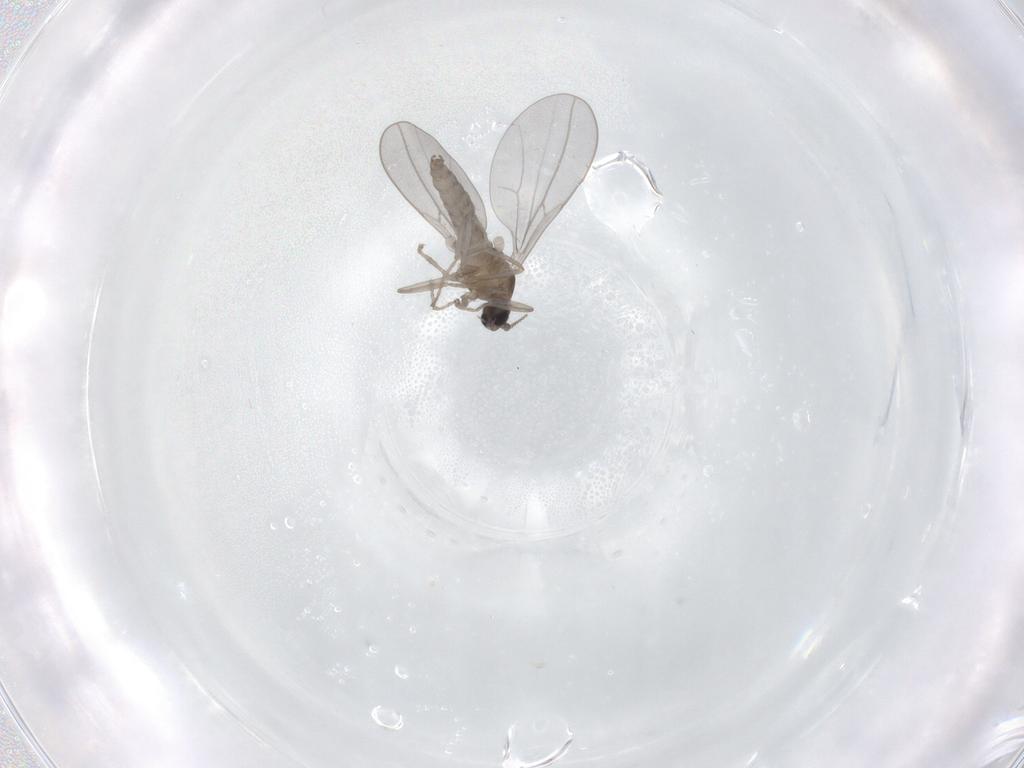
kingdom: Animalia
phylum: Arthropoda
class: Insecta
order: Diptera
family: Cecidomyiidae
